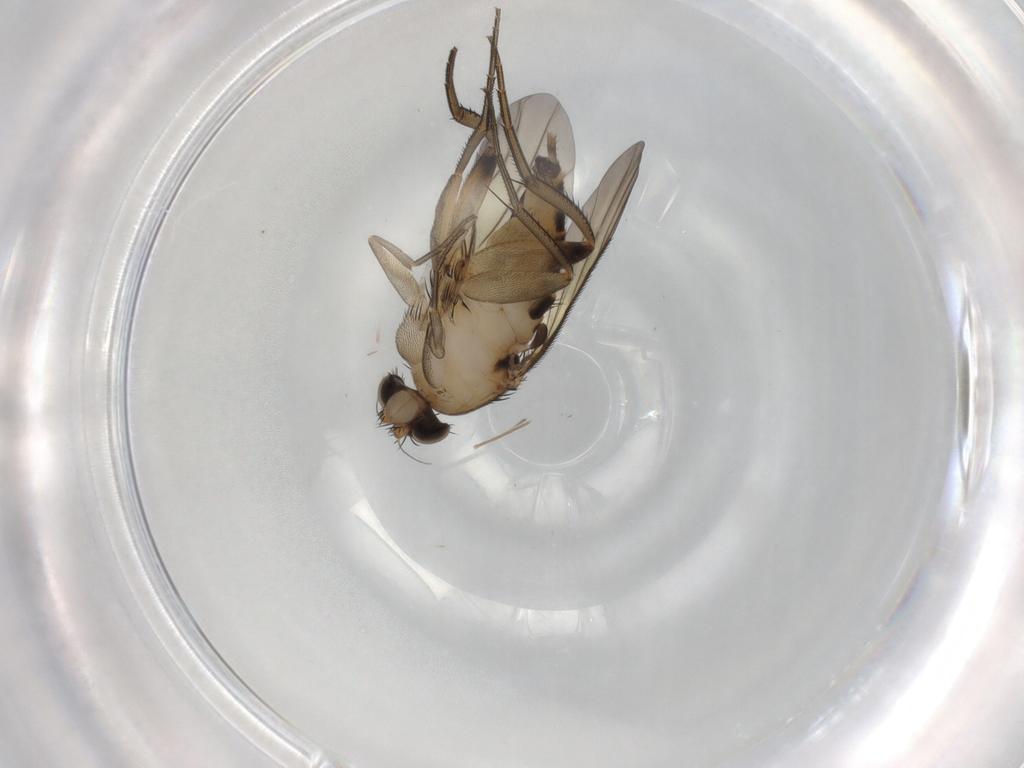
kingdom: Animalia
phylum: Arthropoda
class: Insecta
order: Diptera
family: Phoridae
